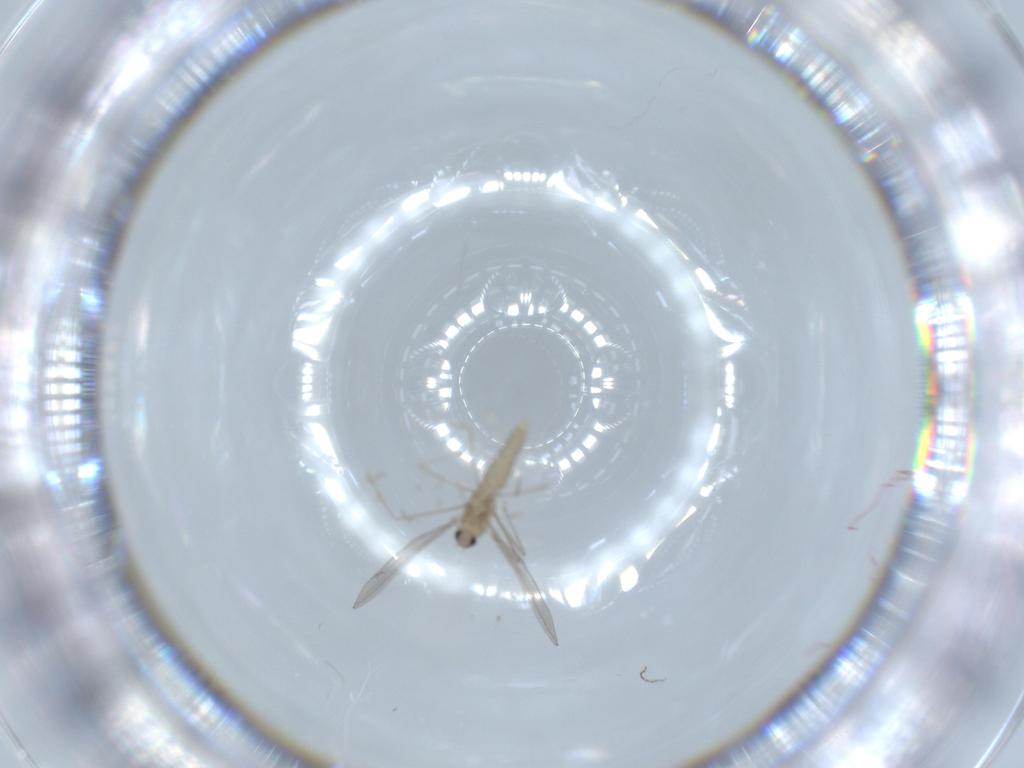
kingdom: Animalia
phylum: Arthropoda
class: Insecta
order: Diptera
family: Cecidomyiidae
